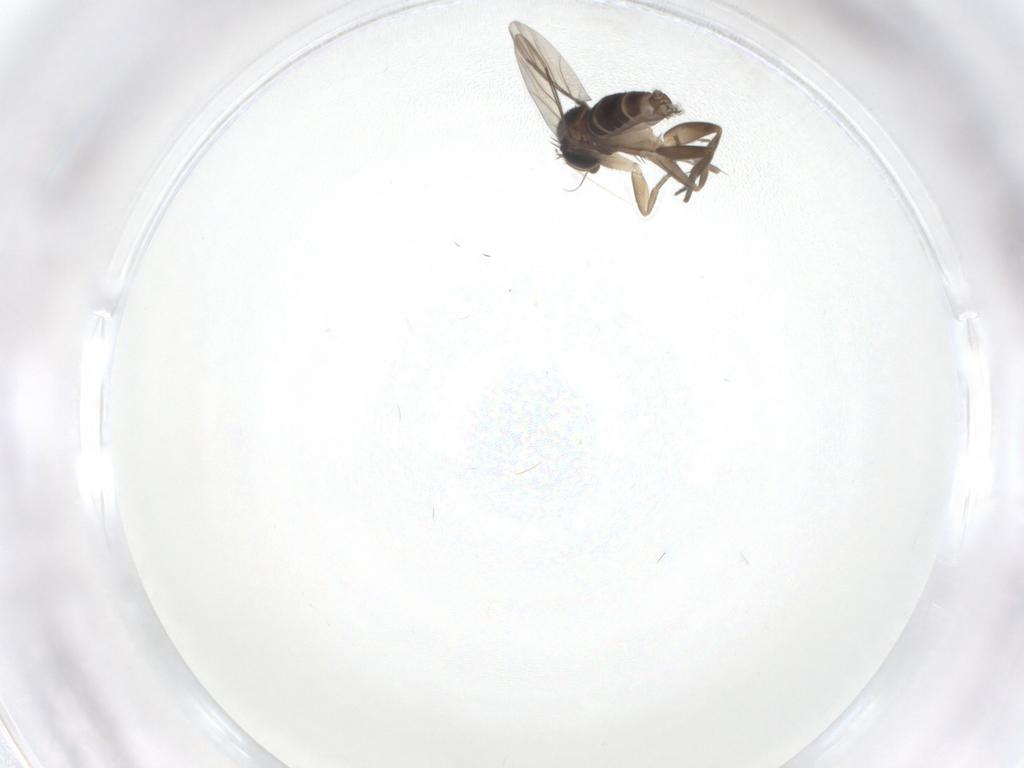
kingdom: Animalia
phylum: Arthropoda
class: Insecta
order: Diptera
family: Phoridae
